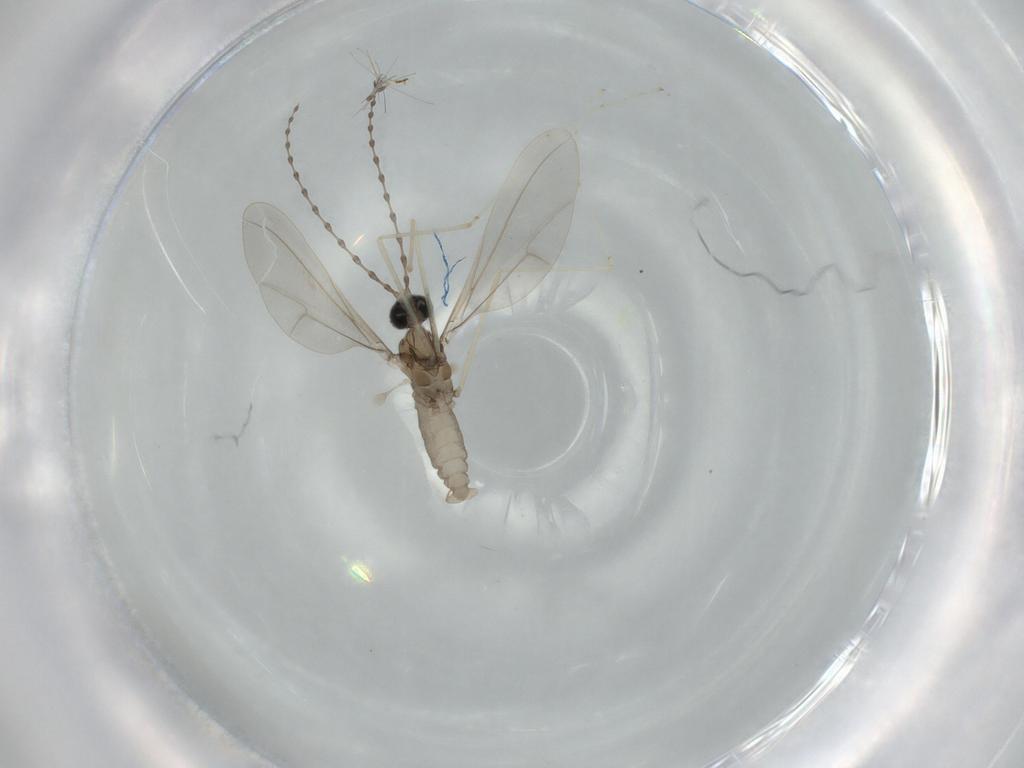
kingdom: Animalia
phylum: Arthropoda
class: Insecta
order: Diptera
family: Cecidomyiidae
